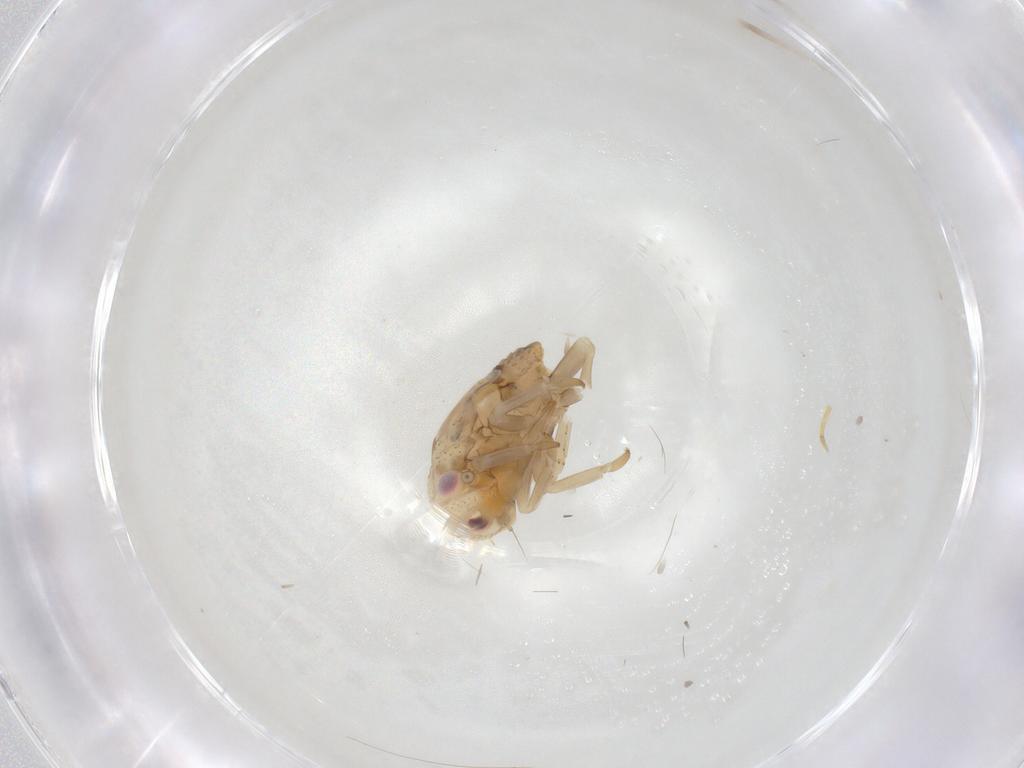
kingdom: Animalia
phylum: Arthropoda
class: Insecta
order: Hemiptera
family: Flatidae
